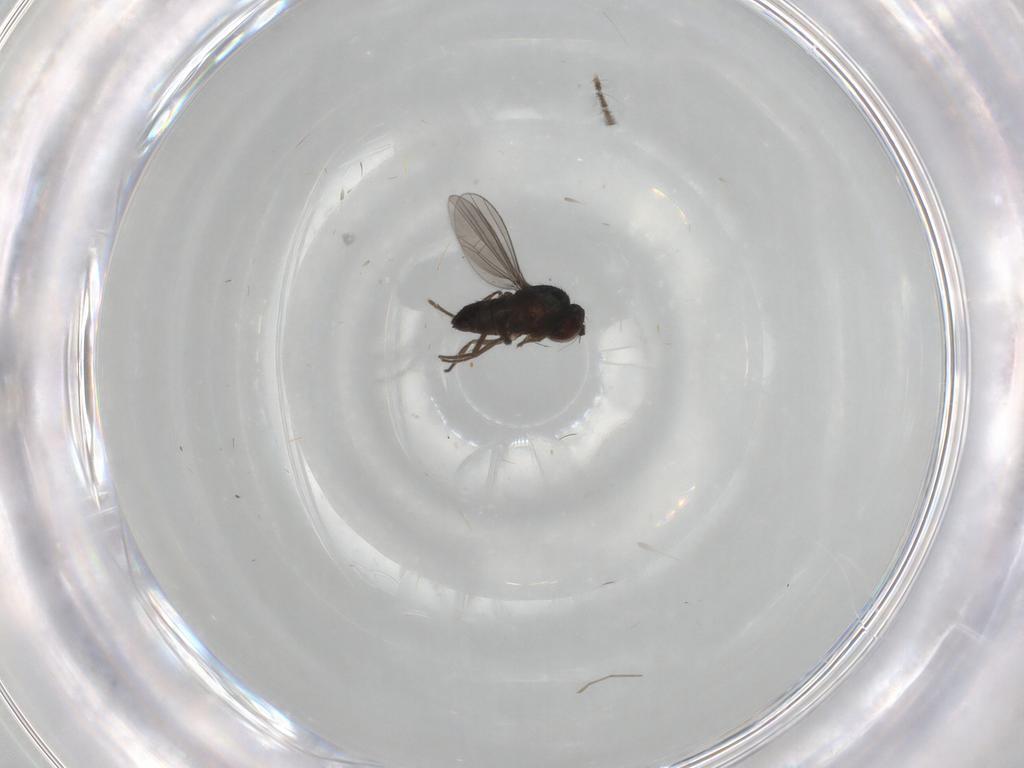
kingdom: Animalia
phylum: Arthropoda
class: Insecta
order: Diptera
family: Dolichopodidae
